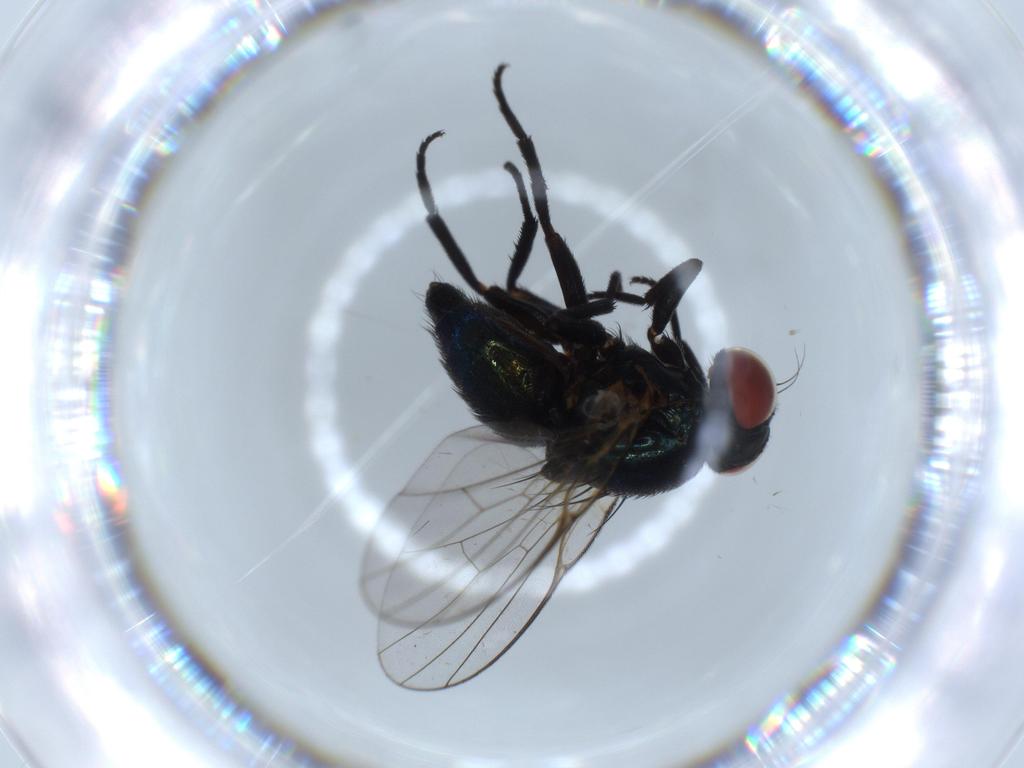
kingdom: Animalia
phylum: Arthropoda
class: Insecta
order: Diptera
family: Agromyzidae
